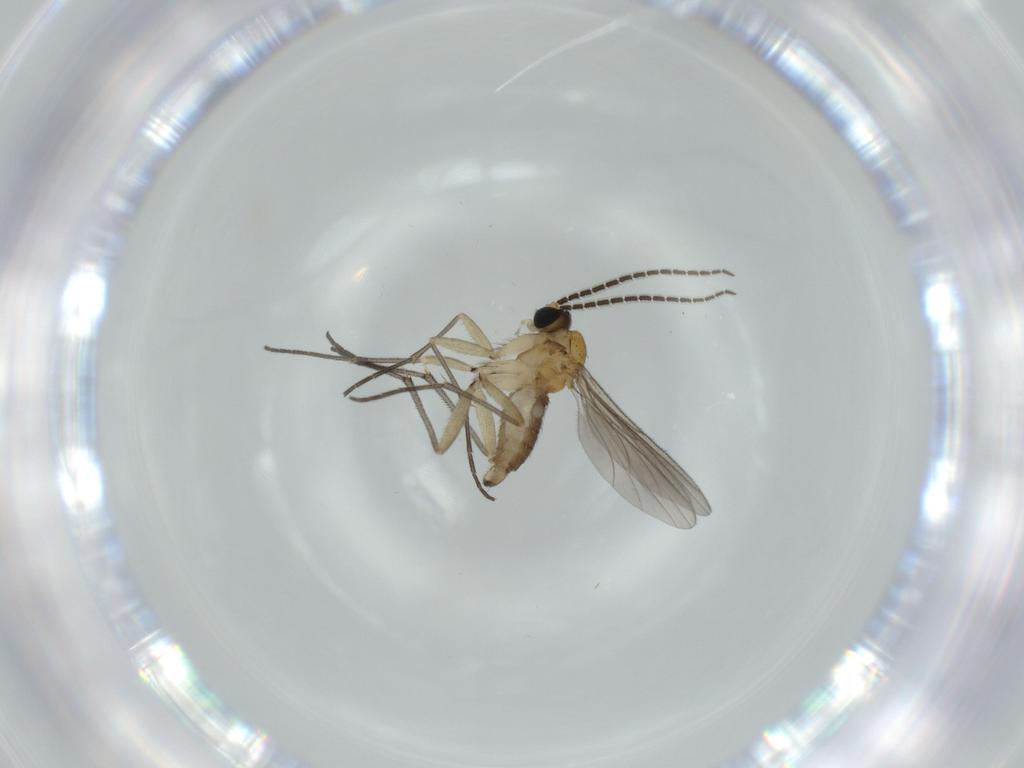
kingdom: Animalia
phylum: Arthropoda
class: Insecta
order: Diptera
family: Sciaridae
